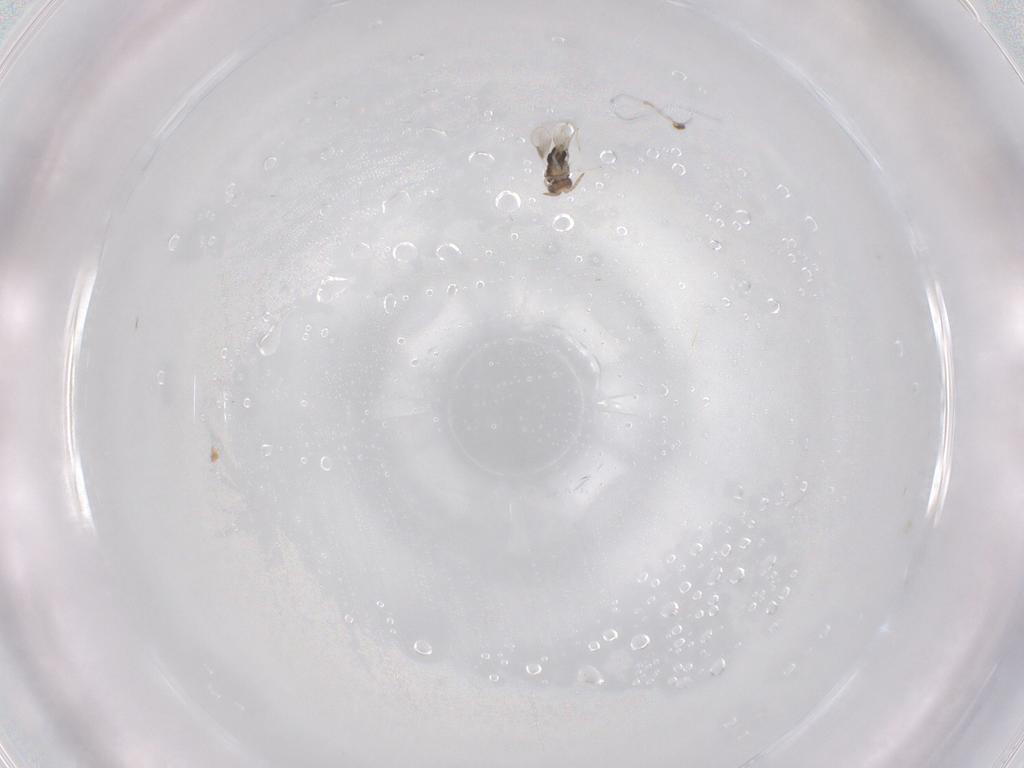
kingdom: Animalia
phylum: Arthropoda
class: Insecta
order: Hymenoptera
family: Aphelinidae
